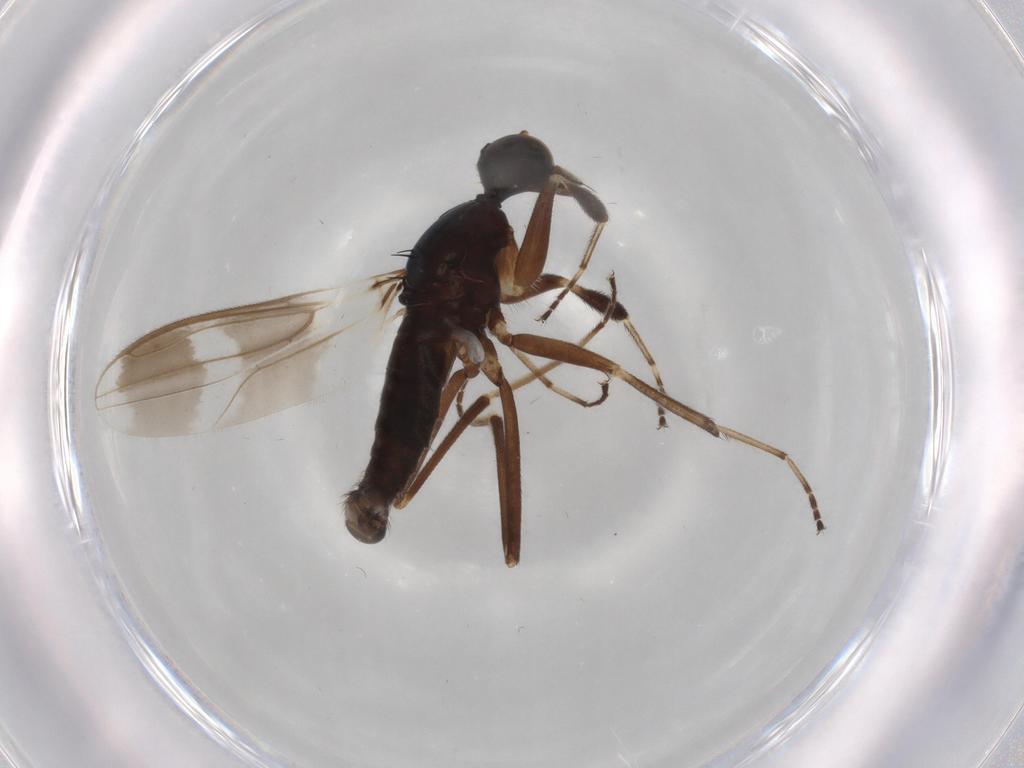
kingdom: Animalia
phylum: Arthropoda
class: Insecta
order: Diptera
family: Hybotidae
